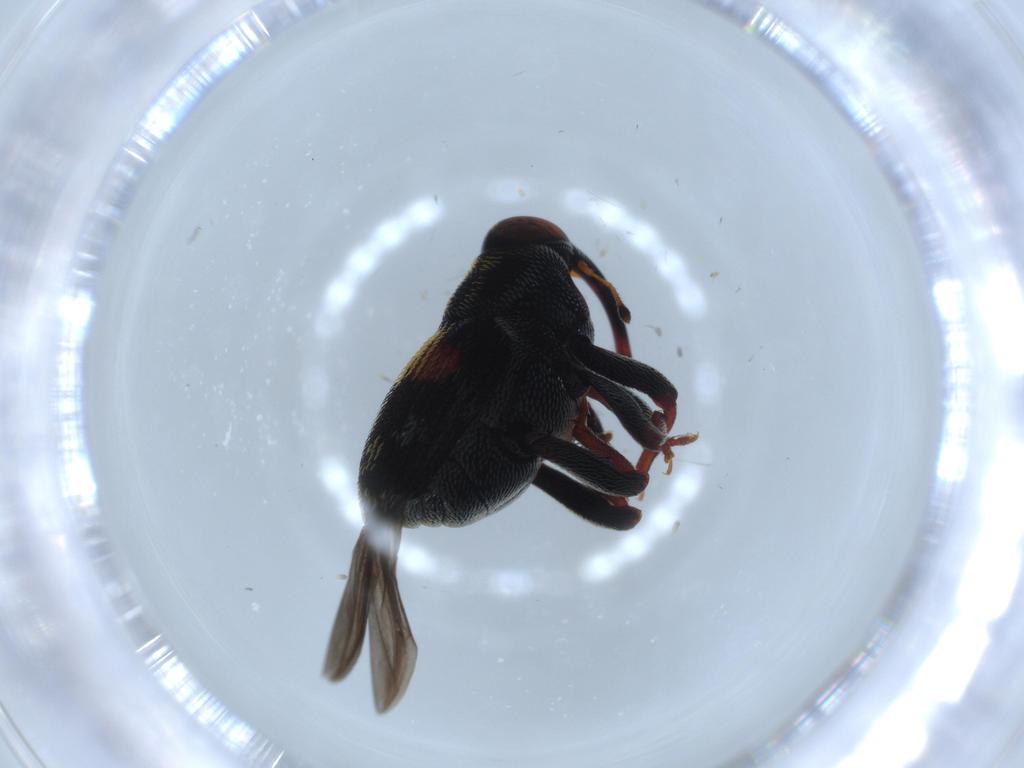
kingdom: Animalia
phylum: Arthropoda
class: Insecta
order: Coleoptera
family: Curculionidae
